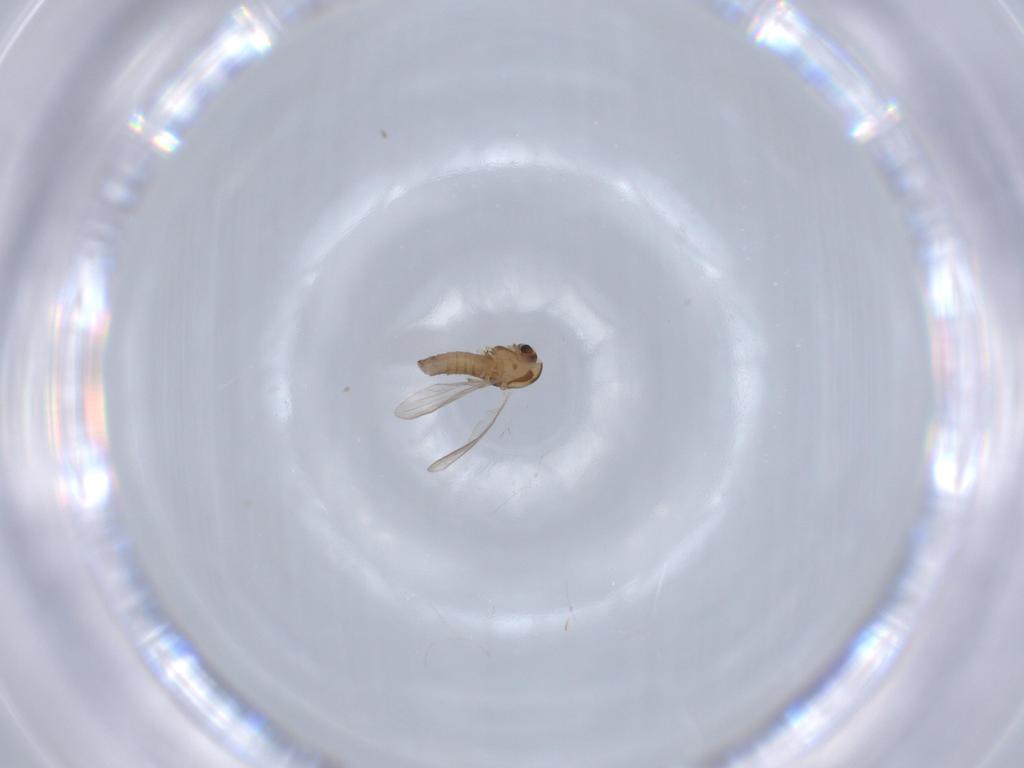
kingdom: Animalia
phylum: Arthropoda
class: Insecta
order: Diptera
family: Chironomidae
